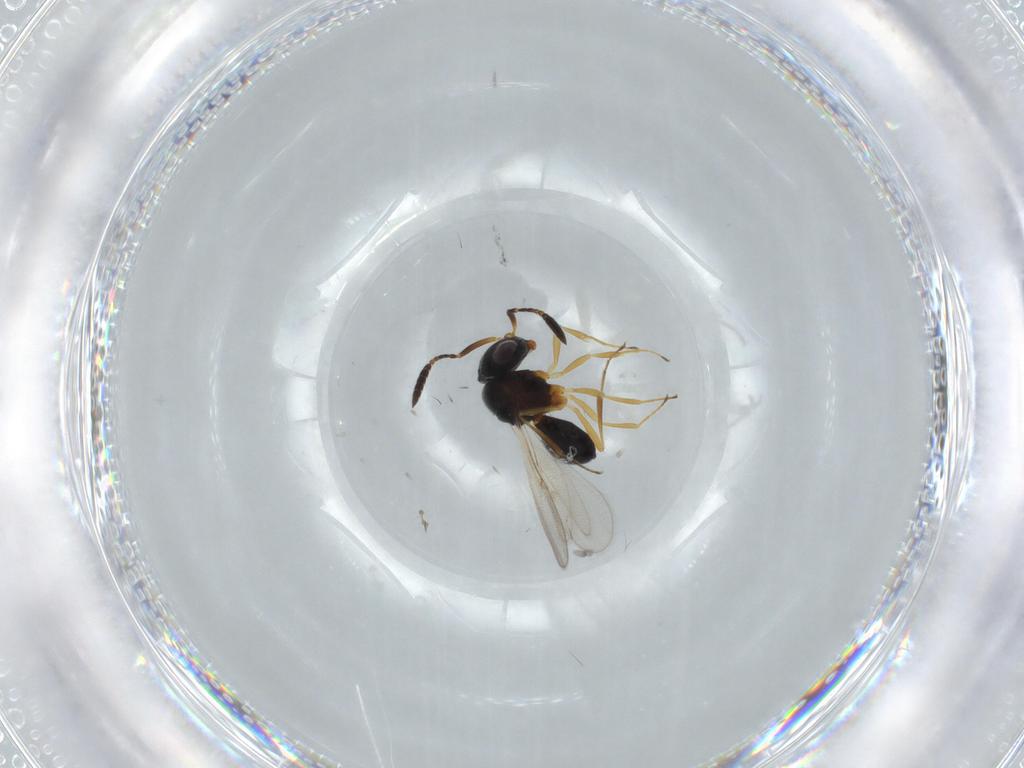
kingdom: Animalia
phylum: Arthropoda
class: Insecta
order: Hymenoptera
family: Scelionidae
